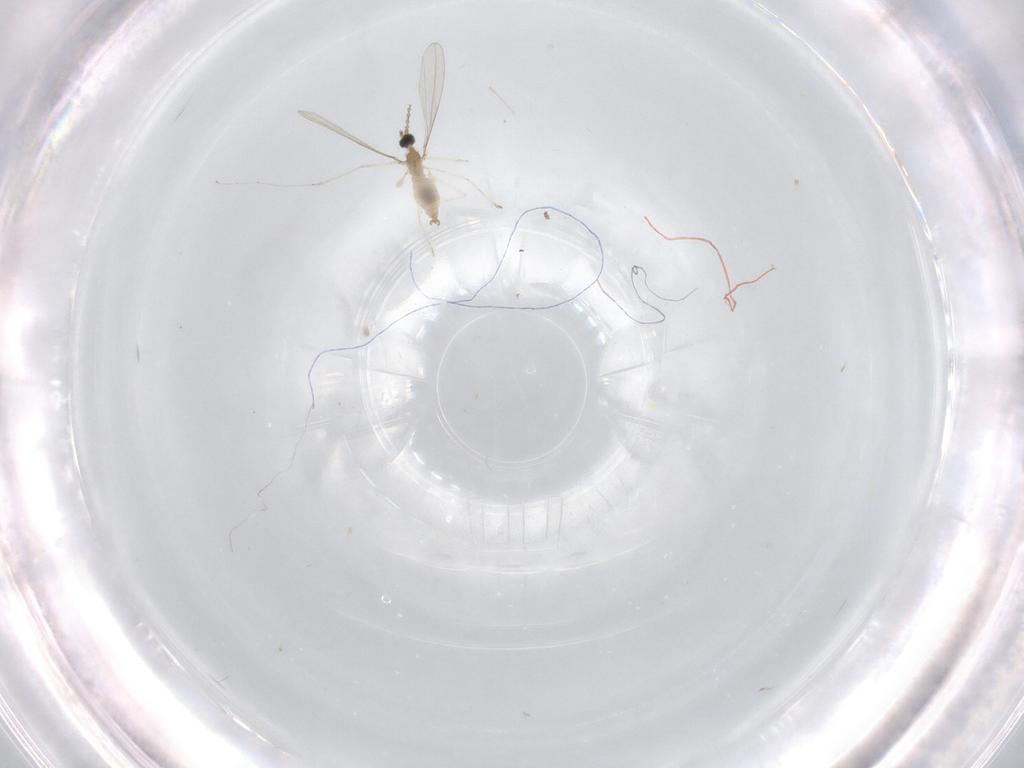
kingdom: Animalia
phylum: Arthropoda
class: Insecta
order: Diptera
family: Cecidomyiidae
